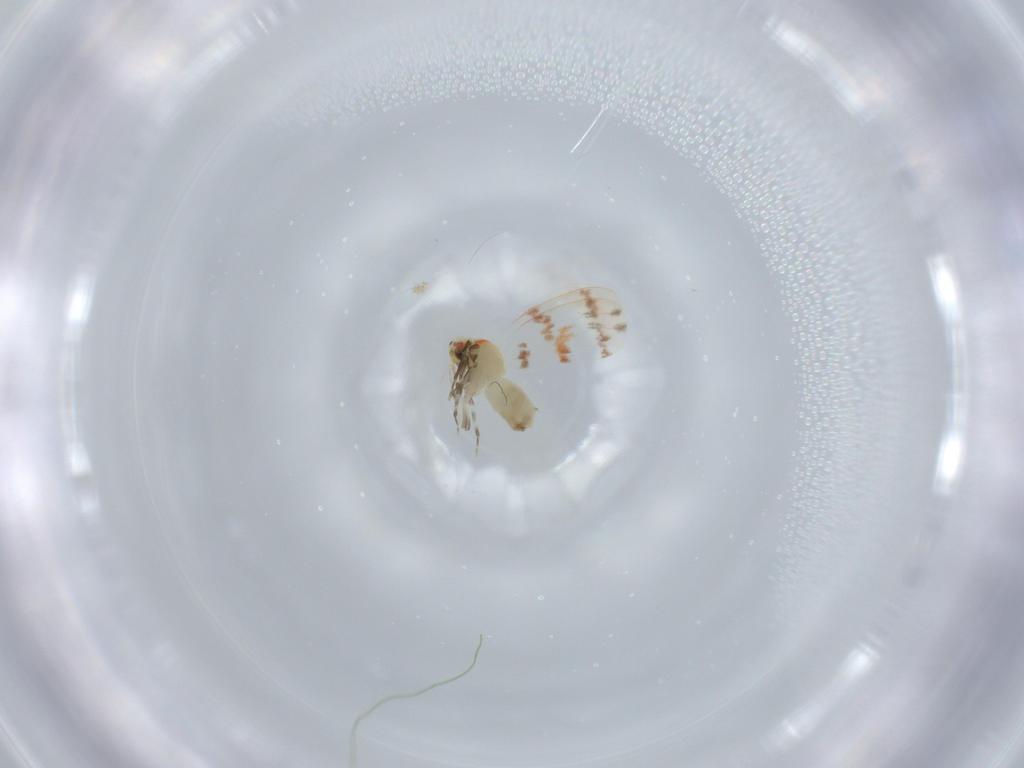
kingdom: Animalia
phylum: Arthropoda
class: Insecta
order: Hemiptera
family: Aleyrodidae
